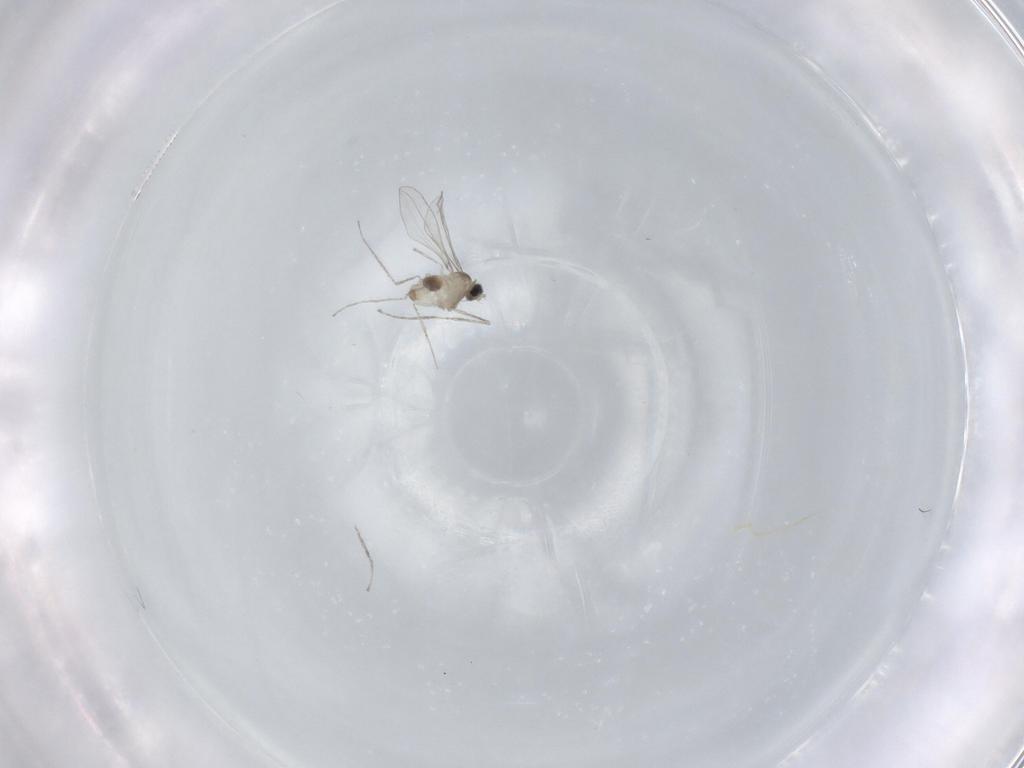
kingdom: Animalia
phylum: Arthropoda
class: Insecta
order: Diptera
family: Cecidomyiidae
